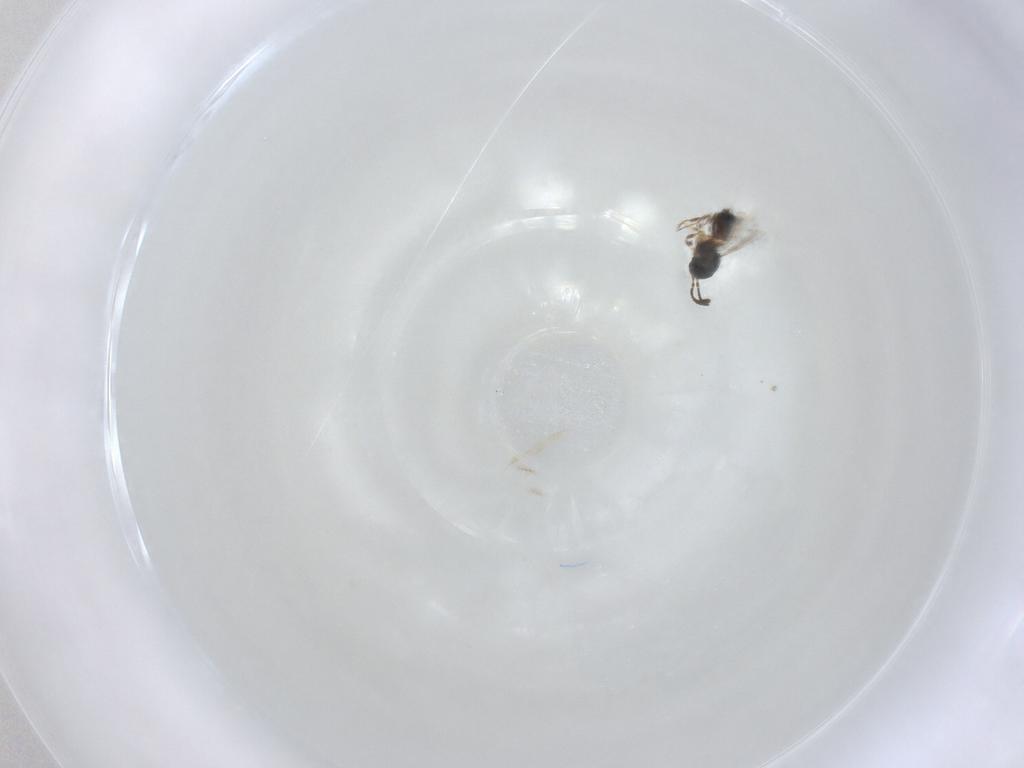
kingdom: Animalia
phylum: Arthropoda
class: Insecta
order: Hymenoptera
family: Scelionidae
